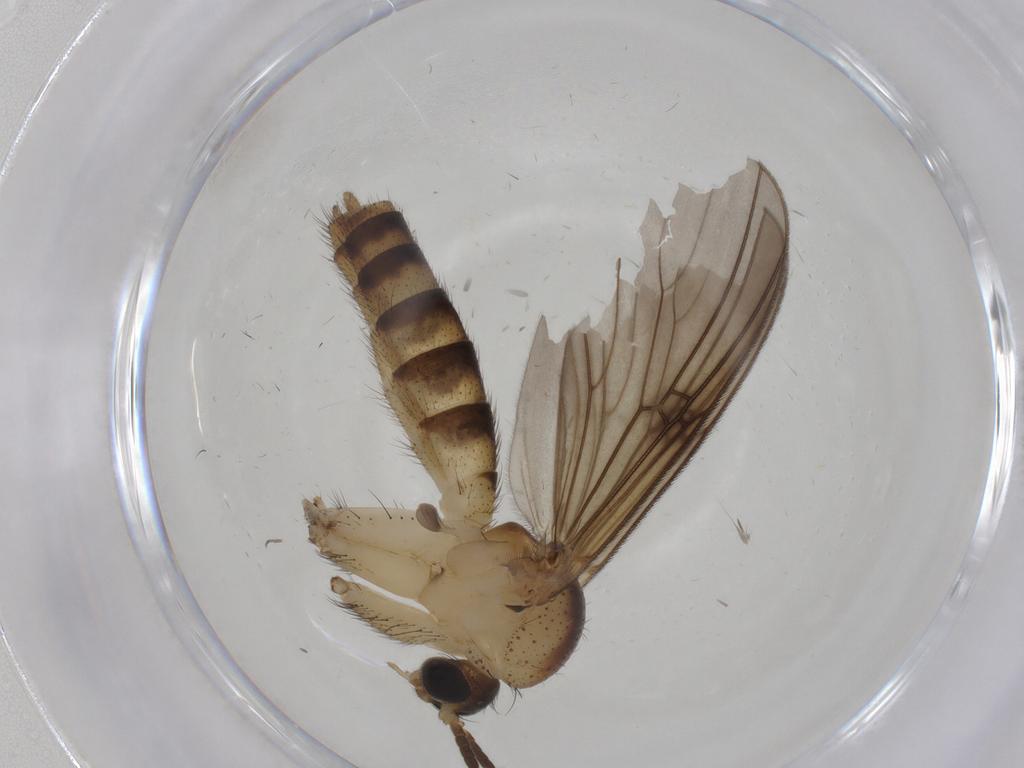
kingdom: Animalia
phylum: Arthropoda
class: Insecta
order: Diptera
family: Mycetophilidae
